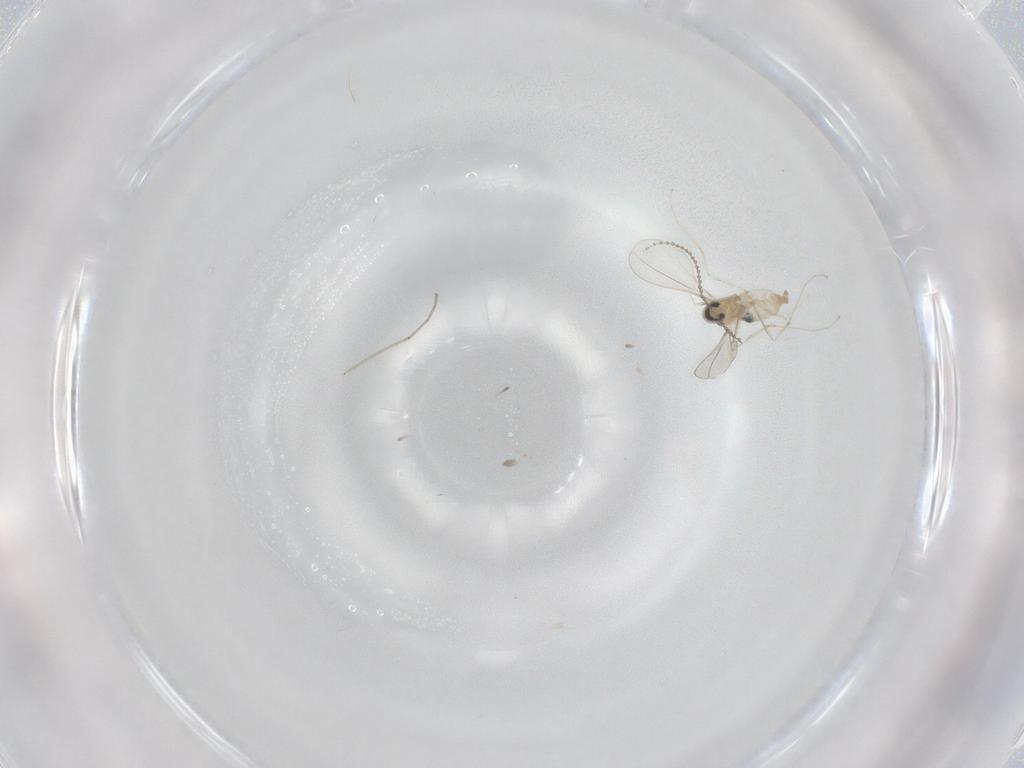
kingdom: Animalia
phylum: Arthropoda
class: Insecta
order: Diptera
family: Cecidomyiidae
